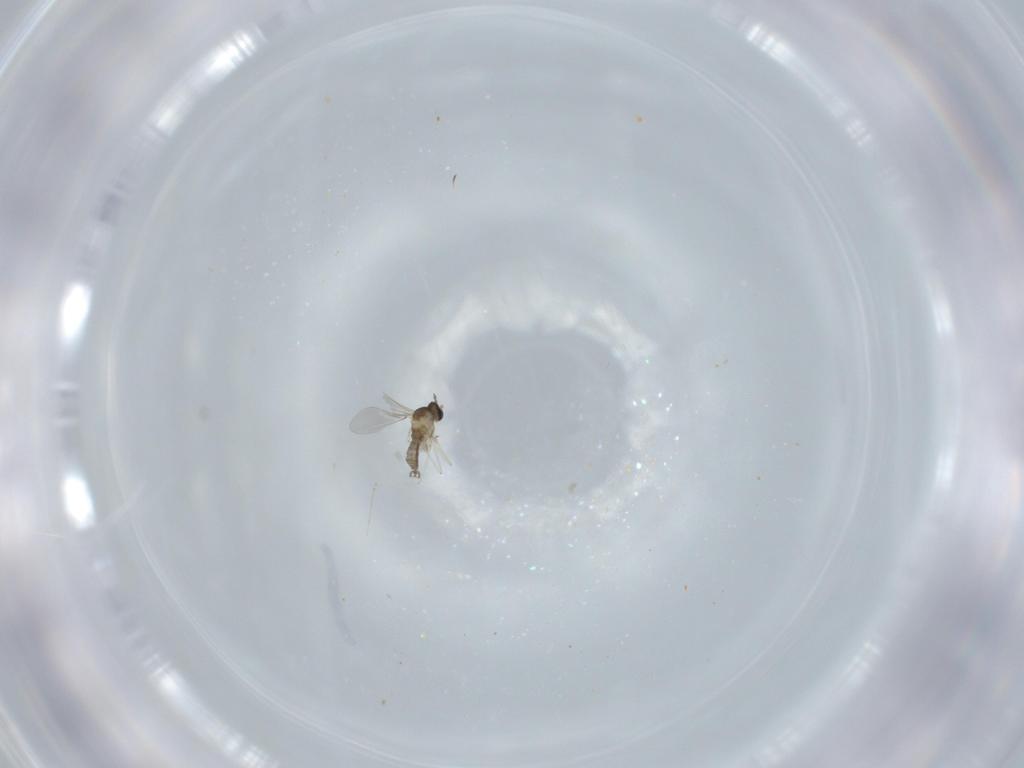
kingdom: Animalia
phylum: Arthropoda
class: Insecta
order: Diptera
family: Cecidomyiidae
